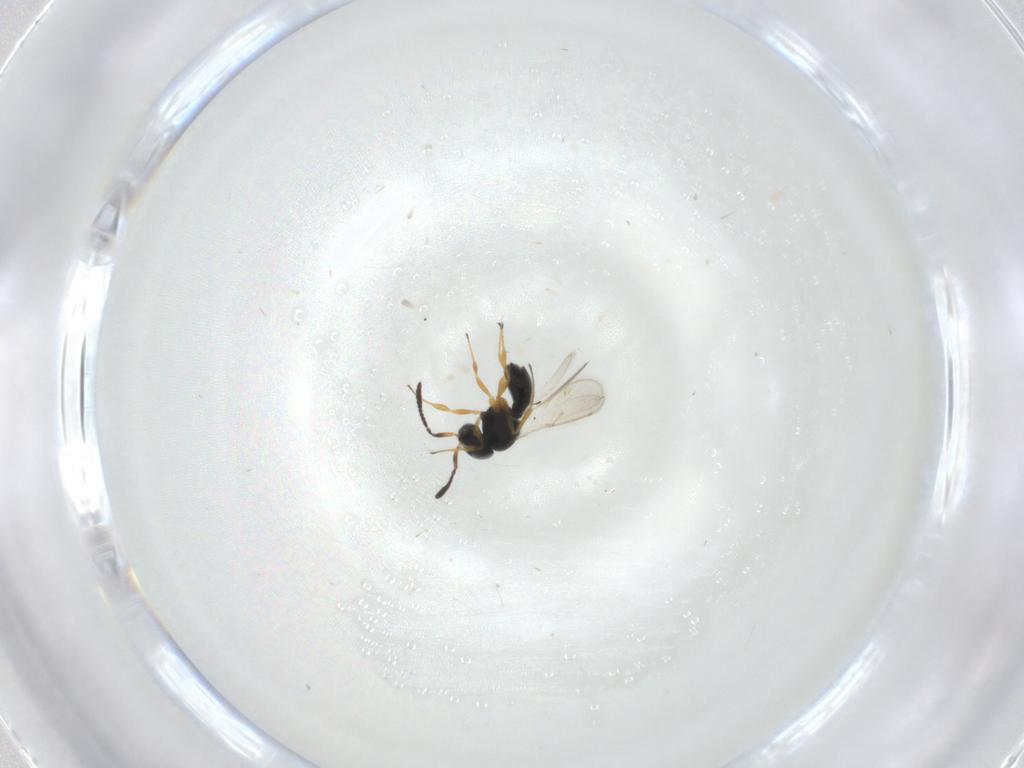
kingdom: Animalia
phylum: Arthropoda
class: Insecta
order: Hymenoptera
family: Scelionidae
